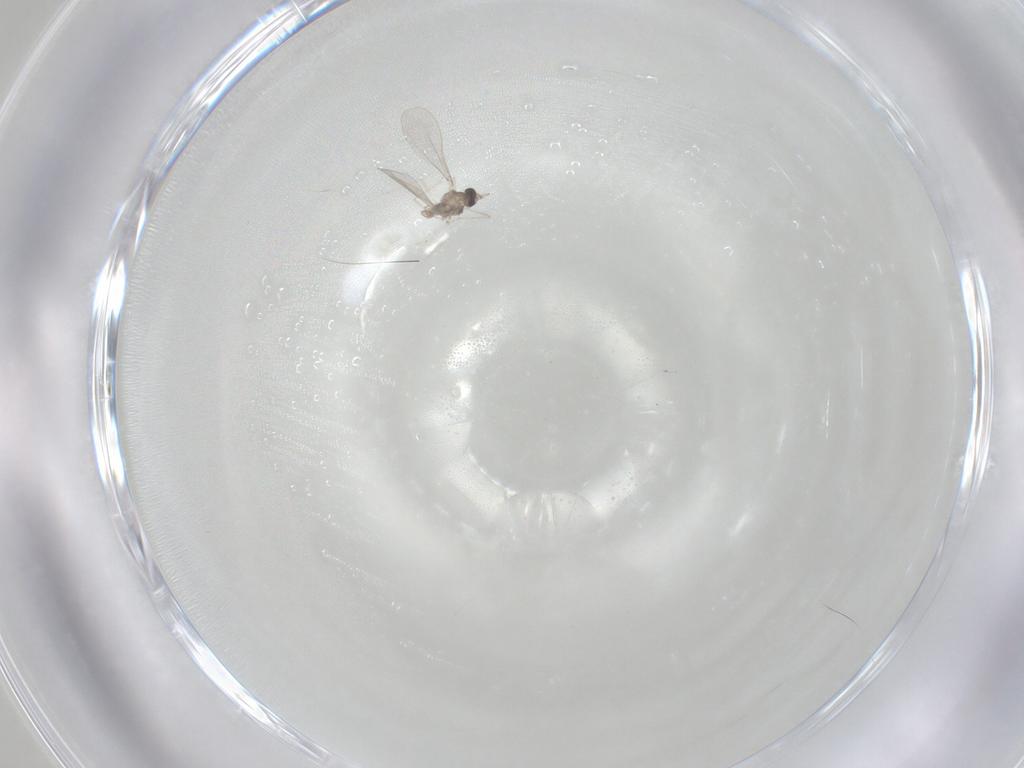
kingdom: Animalia
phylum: Arthropoda
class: Insecta
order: Diptera
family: Cecidomyiidae
